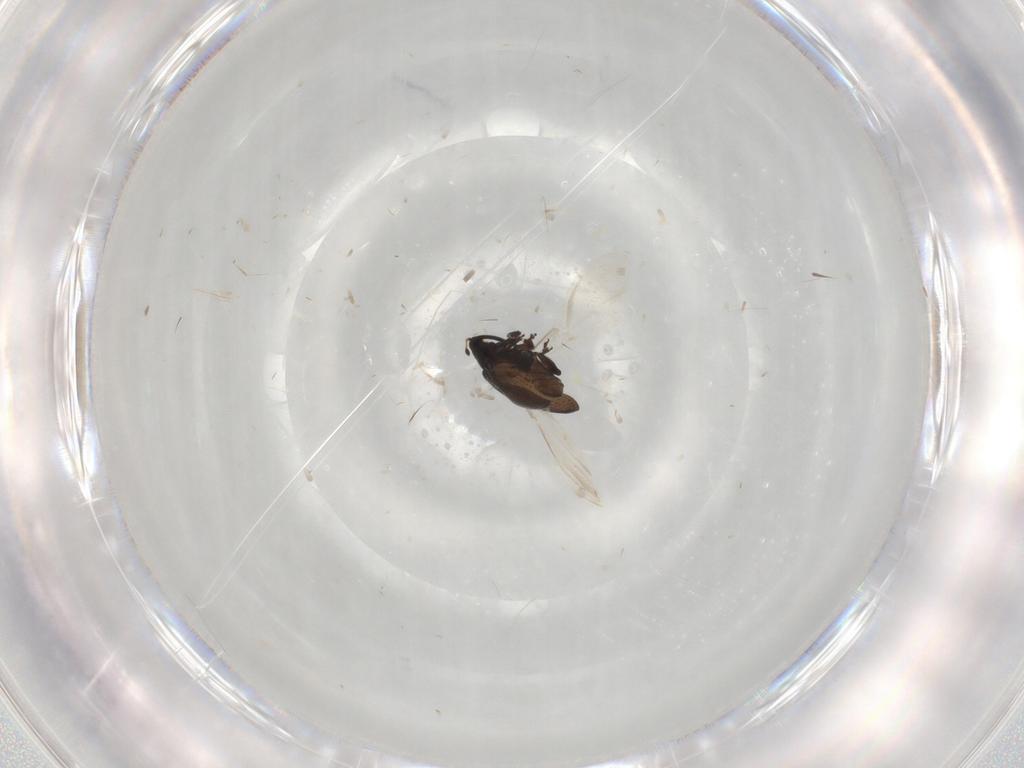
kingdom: Animalia
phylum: Arthropoda
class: Insecta
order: Coleoptera
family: Curculionidae
